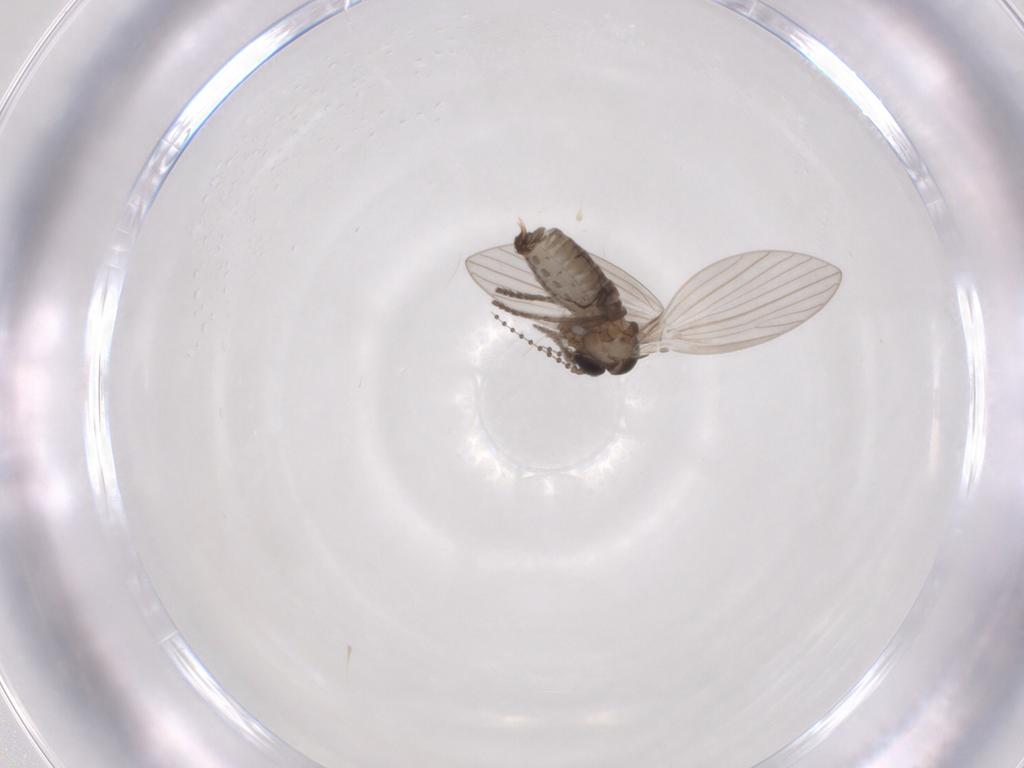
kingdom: Animalia
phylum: Arthropoda
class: Insecta
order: Diptera
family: Psychodidae
